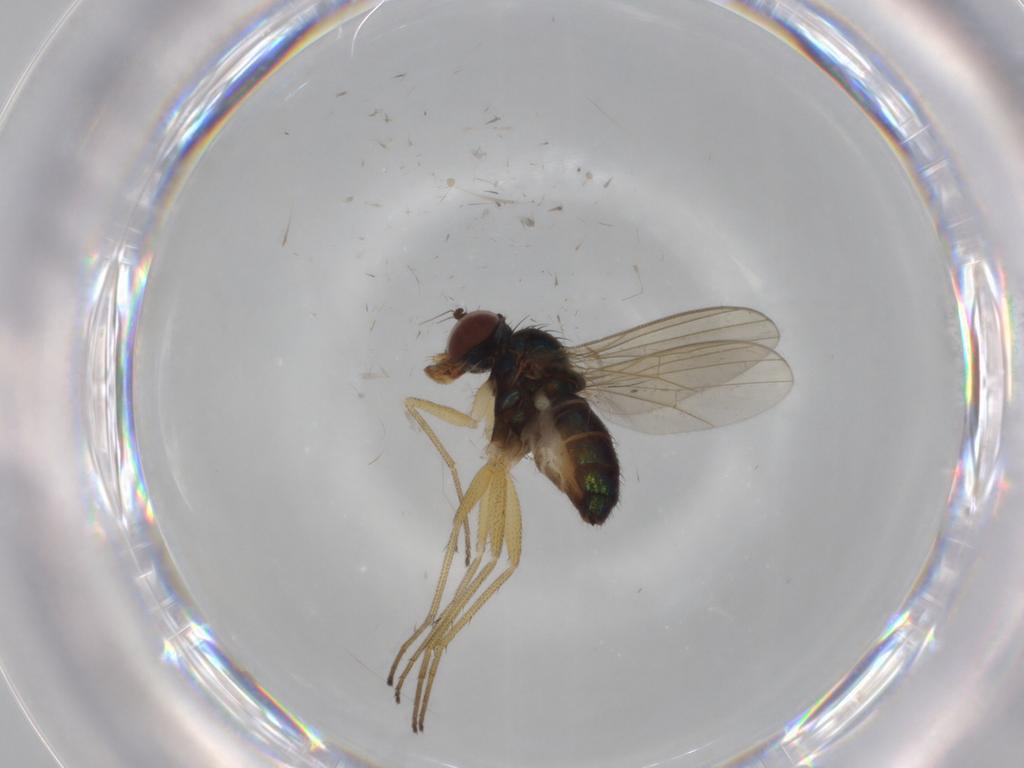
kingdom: Animalia
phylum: Arthropoda
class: Insecta
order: Diptera
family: Dolichopodidae
